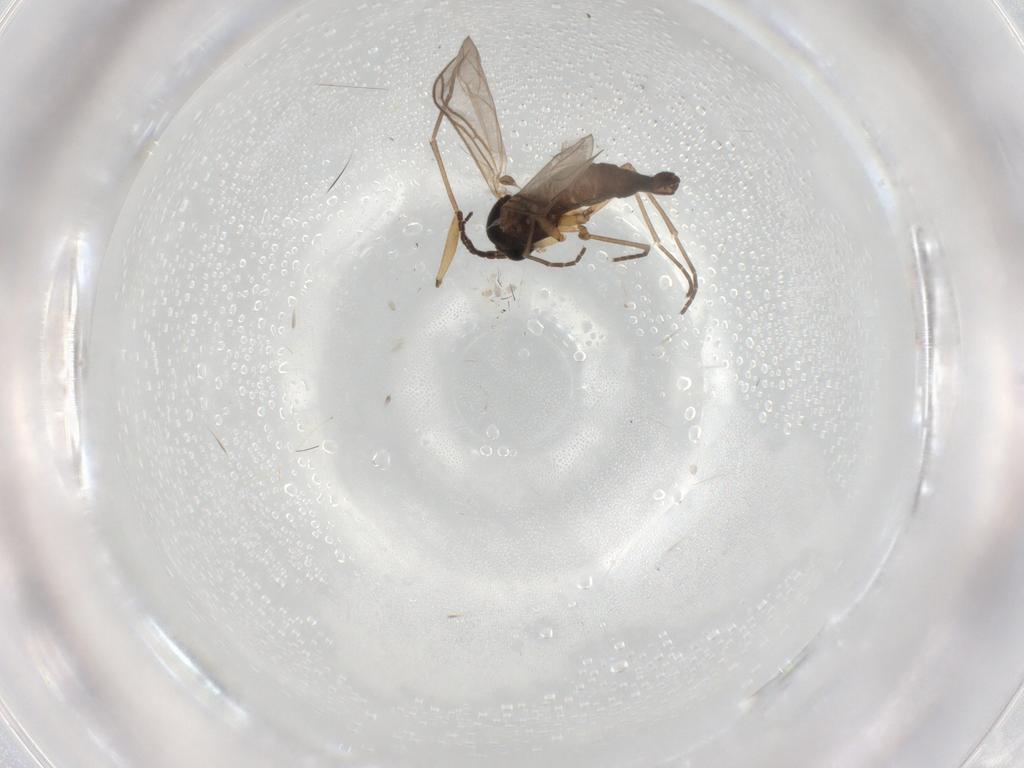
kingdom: Animalia
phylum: Arthropoda
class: Insecta
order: Diptera
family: Sciaridae
